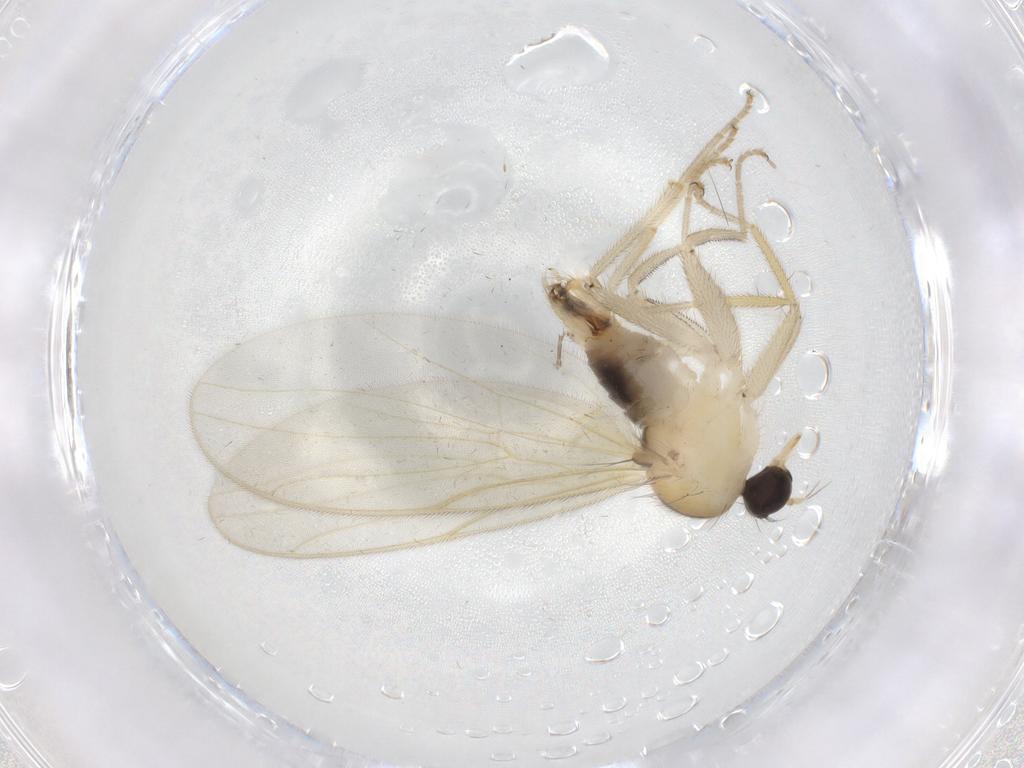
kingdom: Animalia
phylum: Arthropoda
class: Insecta
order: Diptera
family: Hybotidae
